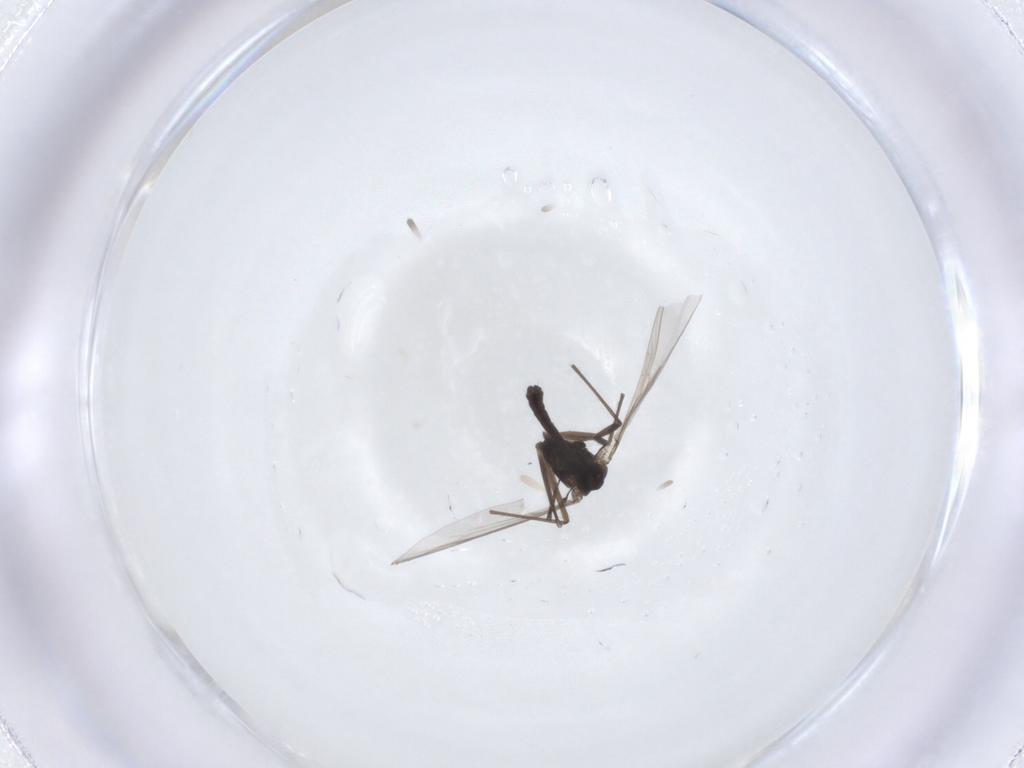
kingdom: Animalia
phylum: Arthropoda
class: Insecta
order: Diptera
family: Chironomidae
